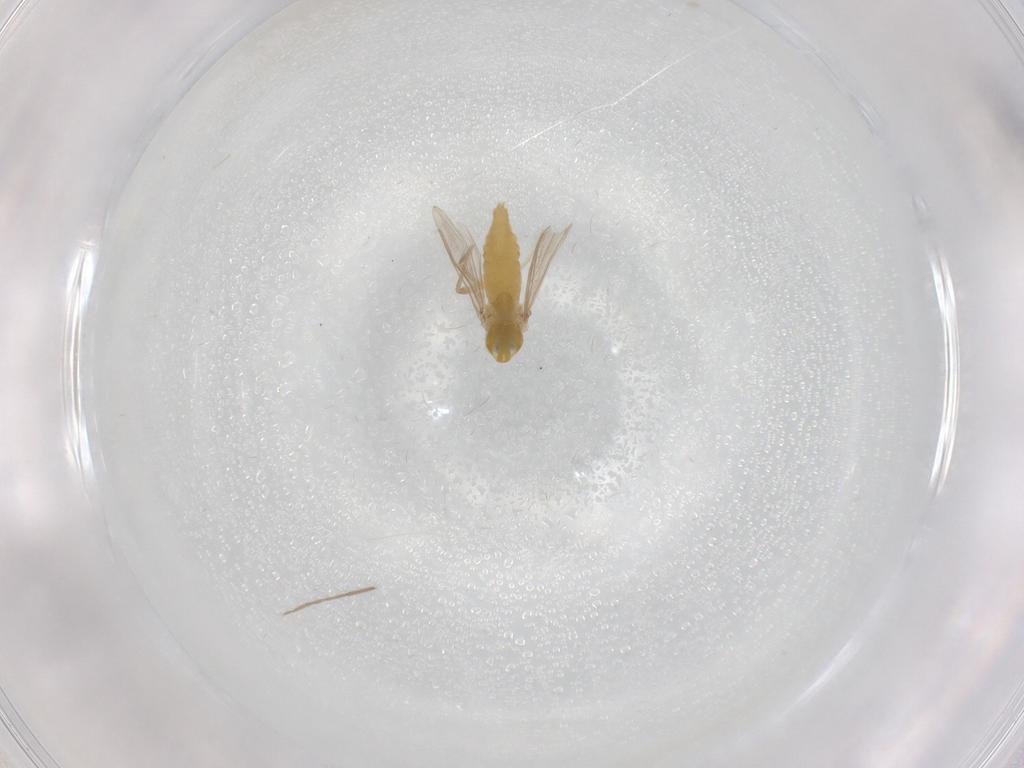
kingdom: Animalia
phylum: Arthropoda
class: Insecta
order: Diptera
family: Chironomidae
